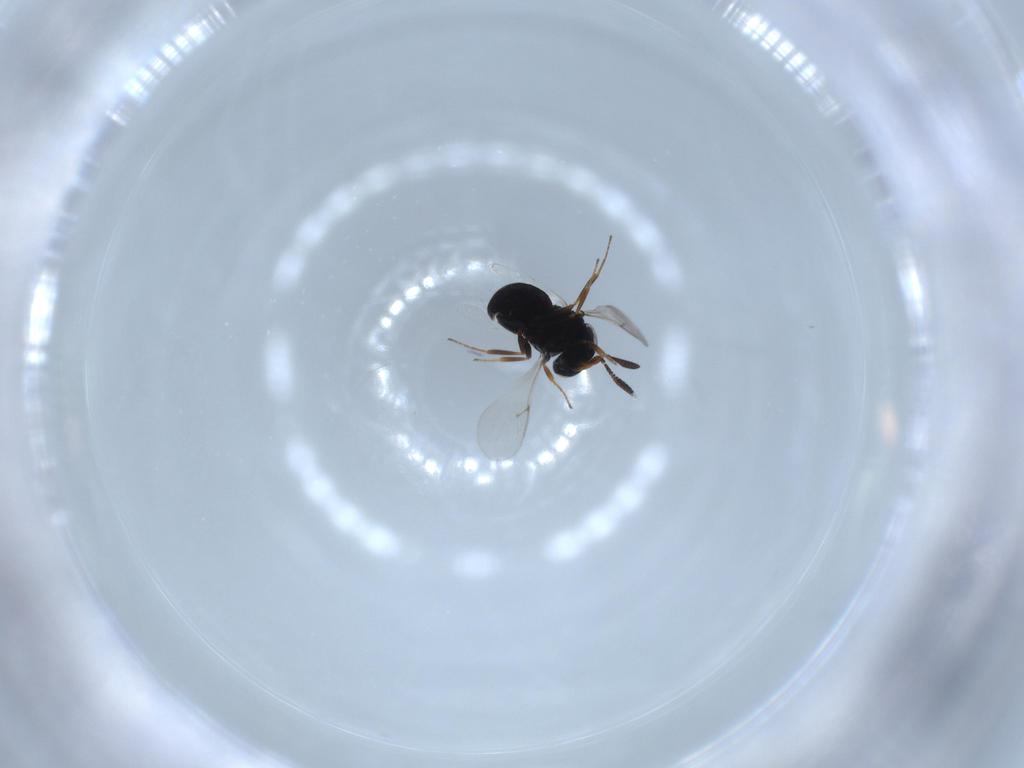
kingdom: Animalia
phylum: Arthropoda
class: Insecta
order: Hymenoptera
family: Scelionidae
